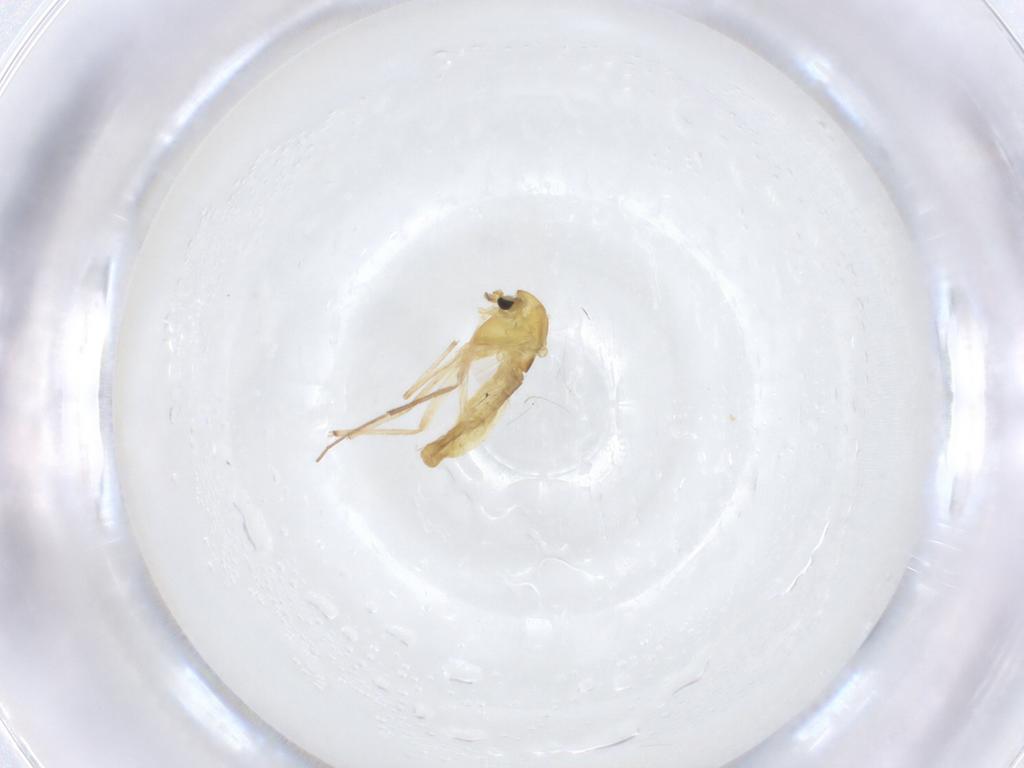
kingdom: Animalia
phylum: Arthropoda
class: Insecta
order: Diptera
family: Chironomidae
